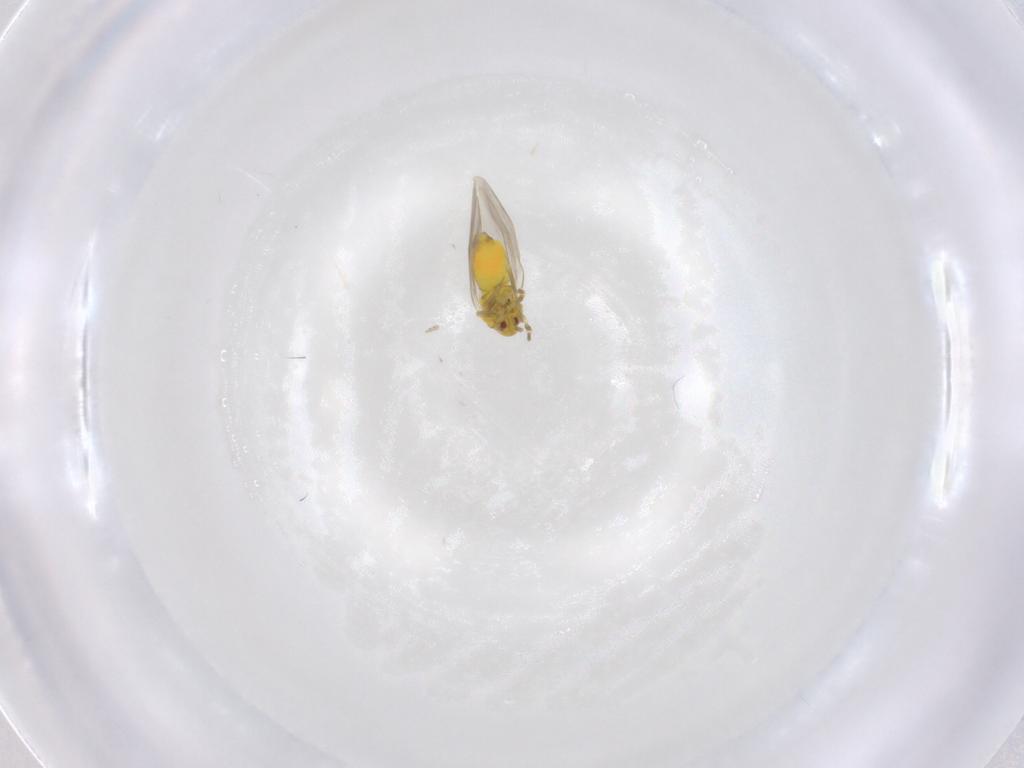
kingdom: Animalia
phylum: Arthropoda
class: Insecta
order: Hemiptera
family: Aleyrodidae
